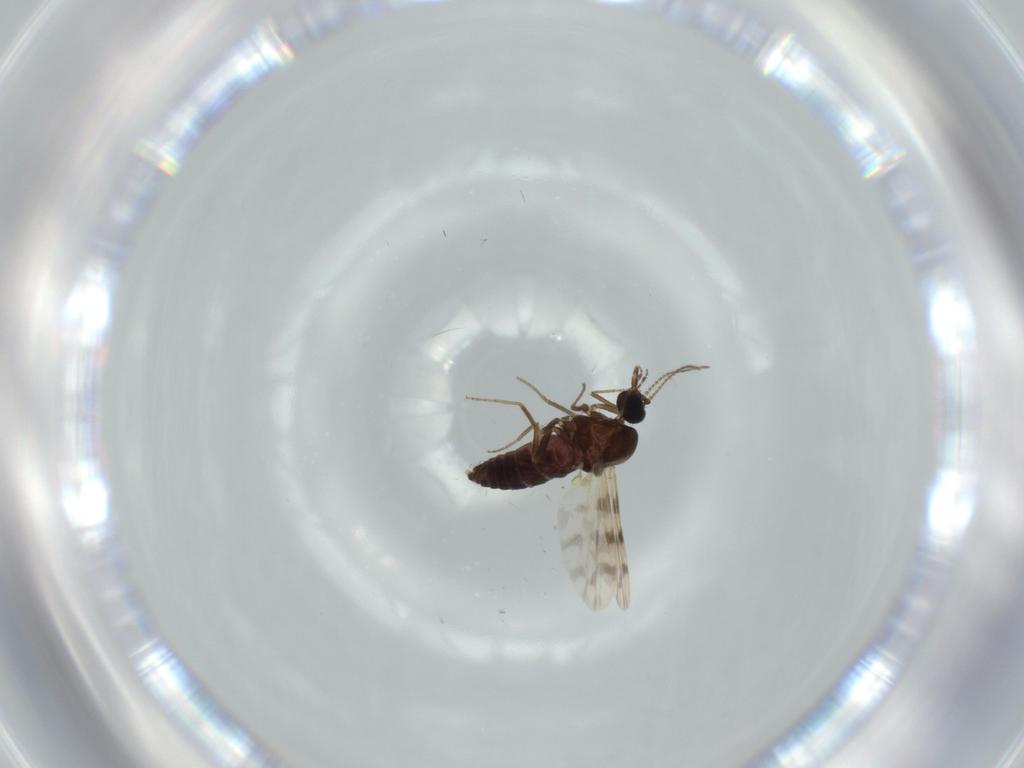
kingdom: Animalia
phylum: Arthropoda
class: Insecta
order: Diptera
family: Ceratopogonidae
